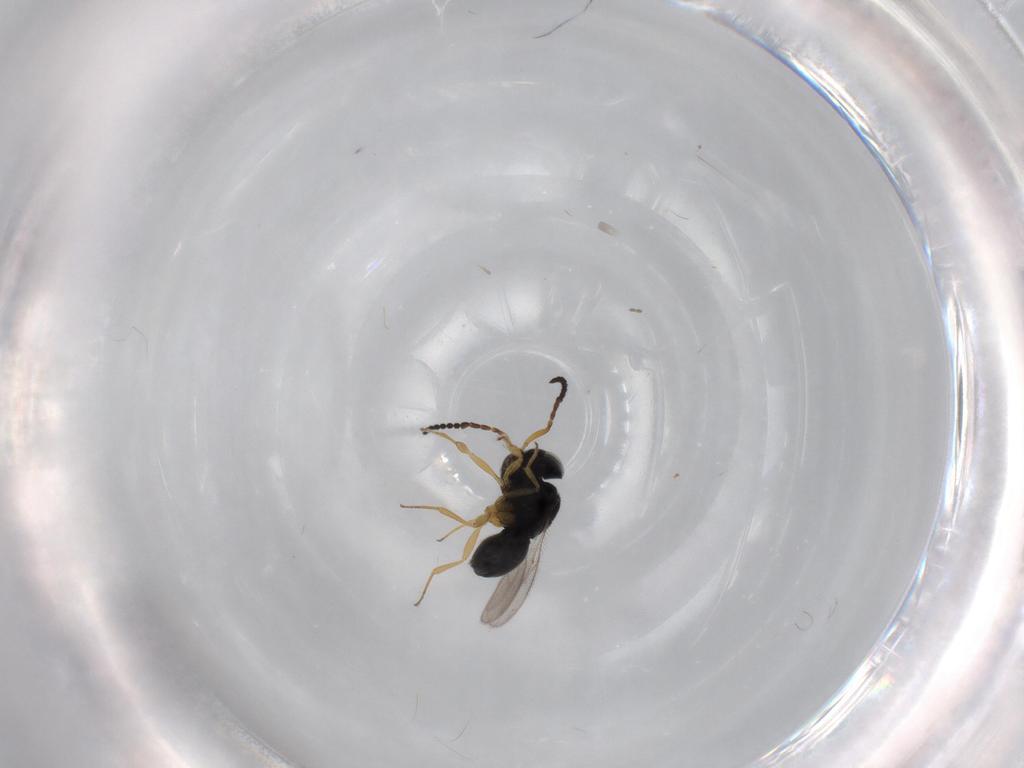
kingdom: Animalia
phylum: Arthropoda
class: Insecta
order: Hymenoptera
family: Scelionidae
